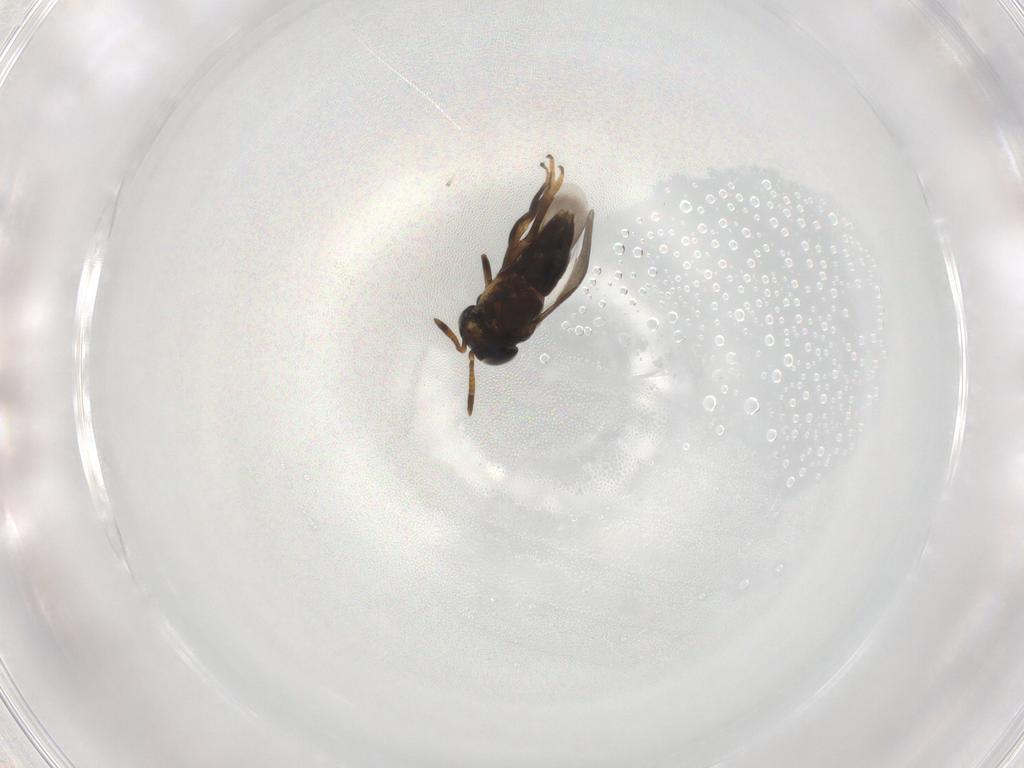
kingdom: Animalia
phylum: Arthropoda
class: Insecta
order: Diptera
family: Phoridae
